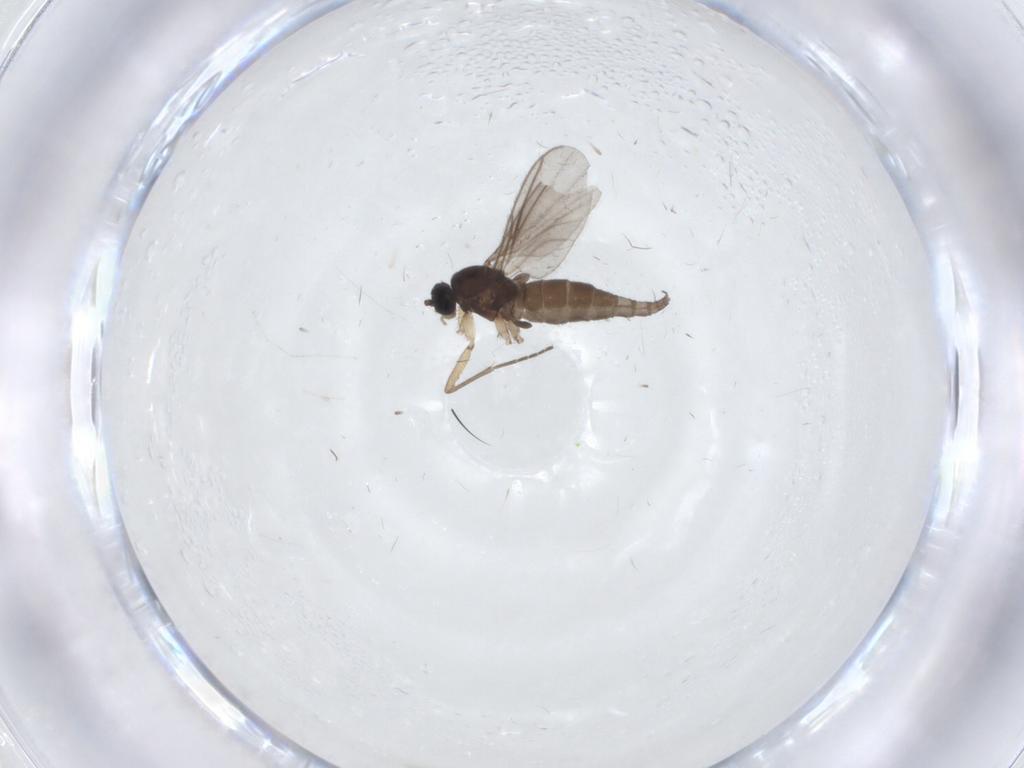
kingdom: Animalia
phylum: Arthropoda
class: Insecta
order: Diptera
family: Sciaridae
